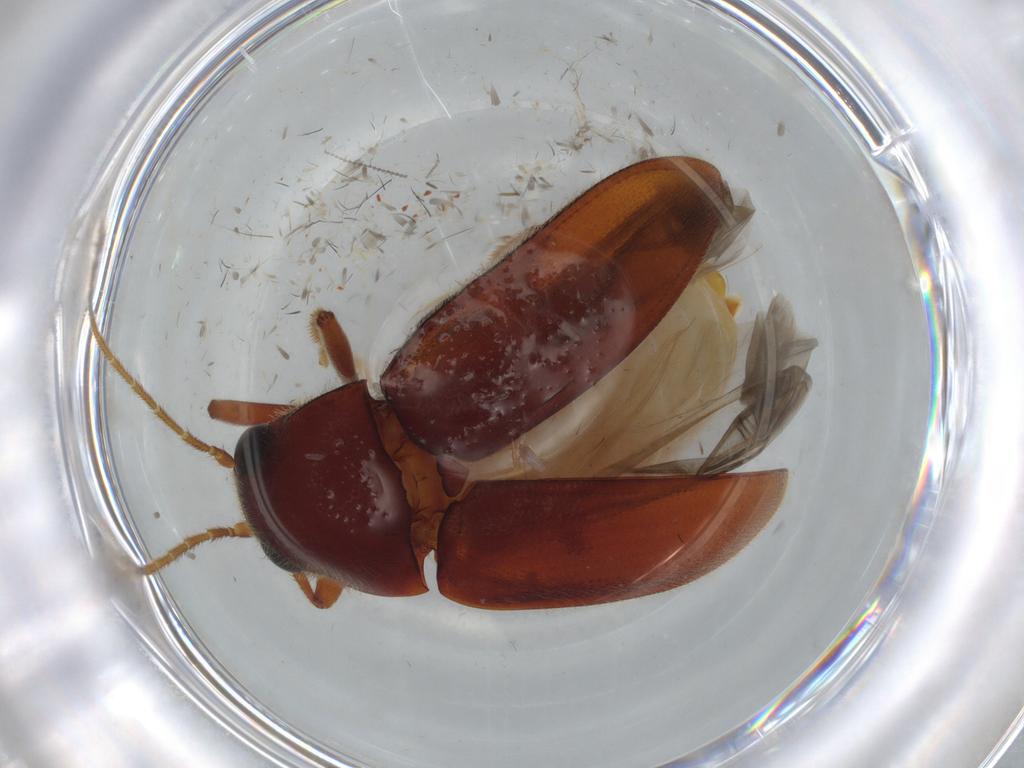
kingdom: Animalia
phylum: Arthropoda
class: Insecta
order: Coleoptera
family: Ptilodactylidae
